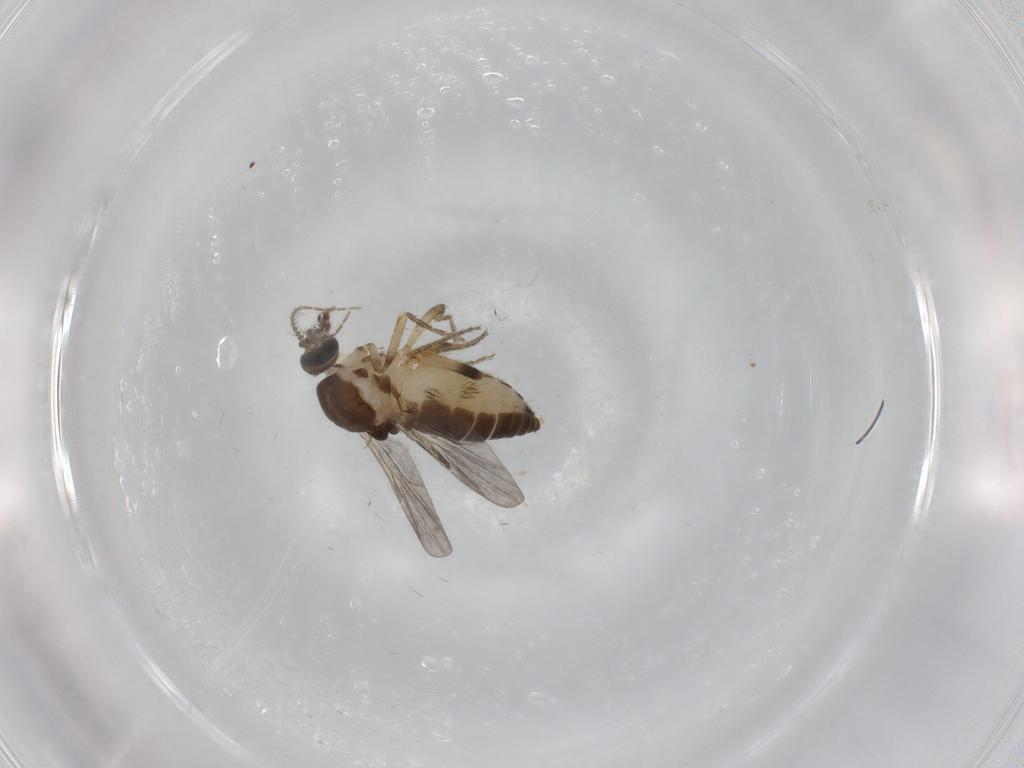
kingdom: Animalia
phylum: Arthropoda
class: Insecta
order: Diptera
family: Ceratopogonidae
